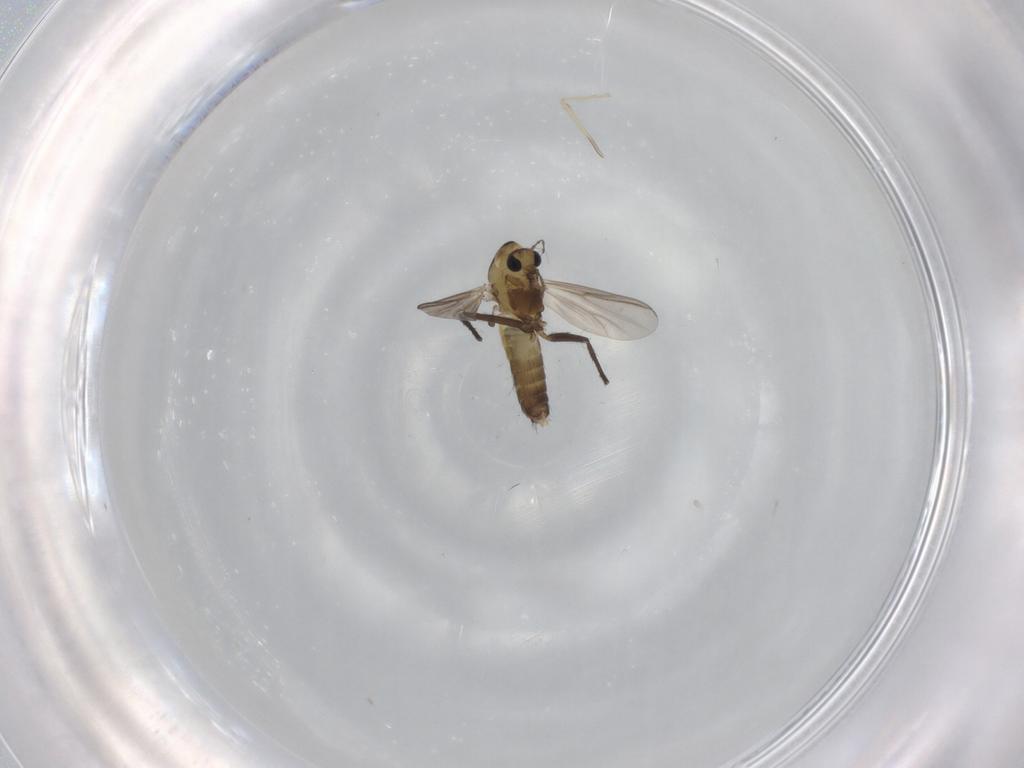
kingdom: Animalia
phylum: Arthropoda
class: Insecta
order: Diptera
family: Chironomidae
